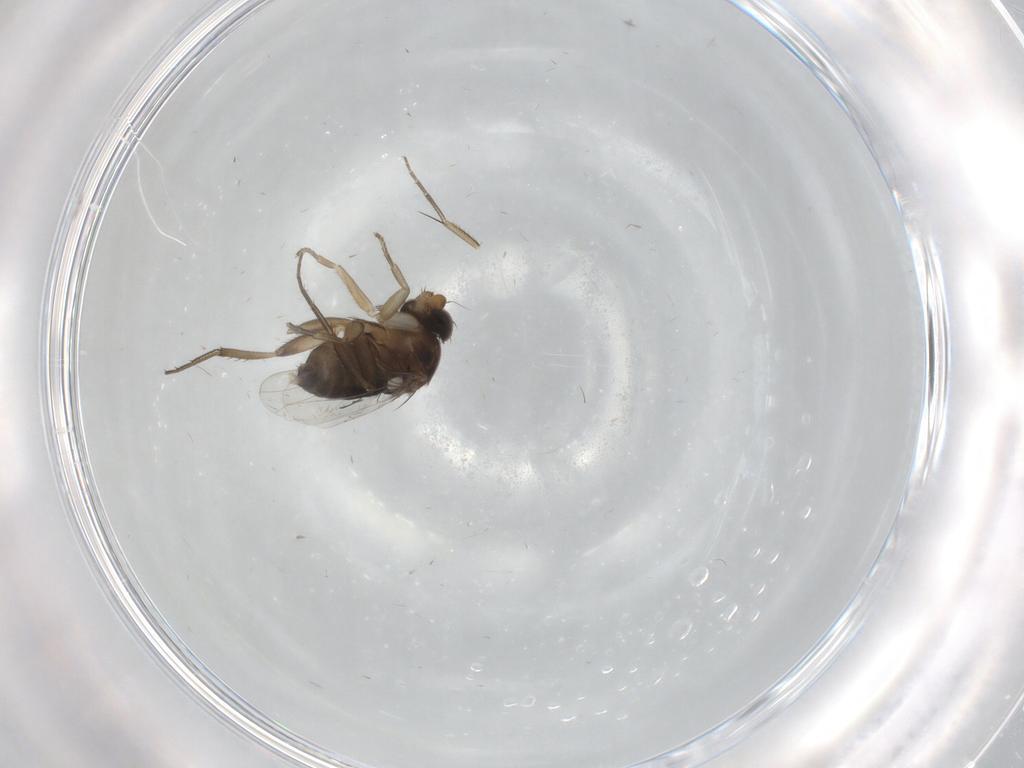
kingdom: Animalia
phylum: Arthropoda
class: Insecta
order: Diptera
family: Phoridae
